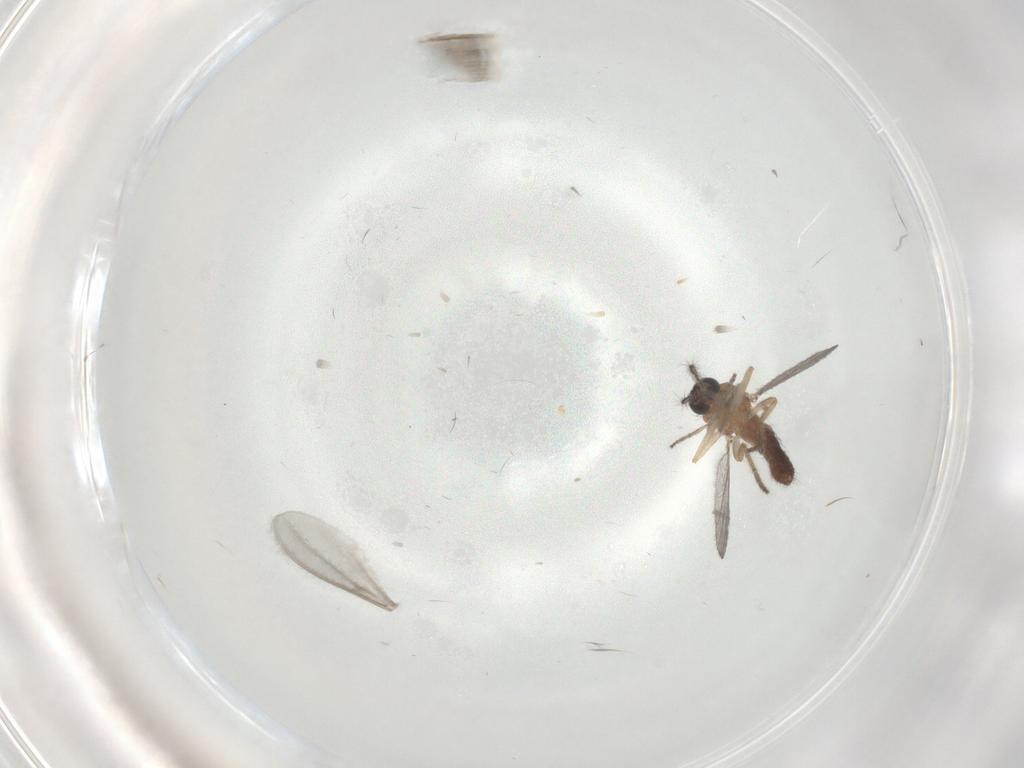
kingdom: Animalia
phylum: Arthropoda
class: Insecta
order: Diptera
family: Ceratopogonidae
